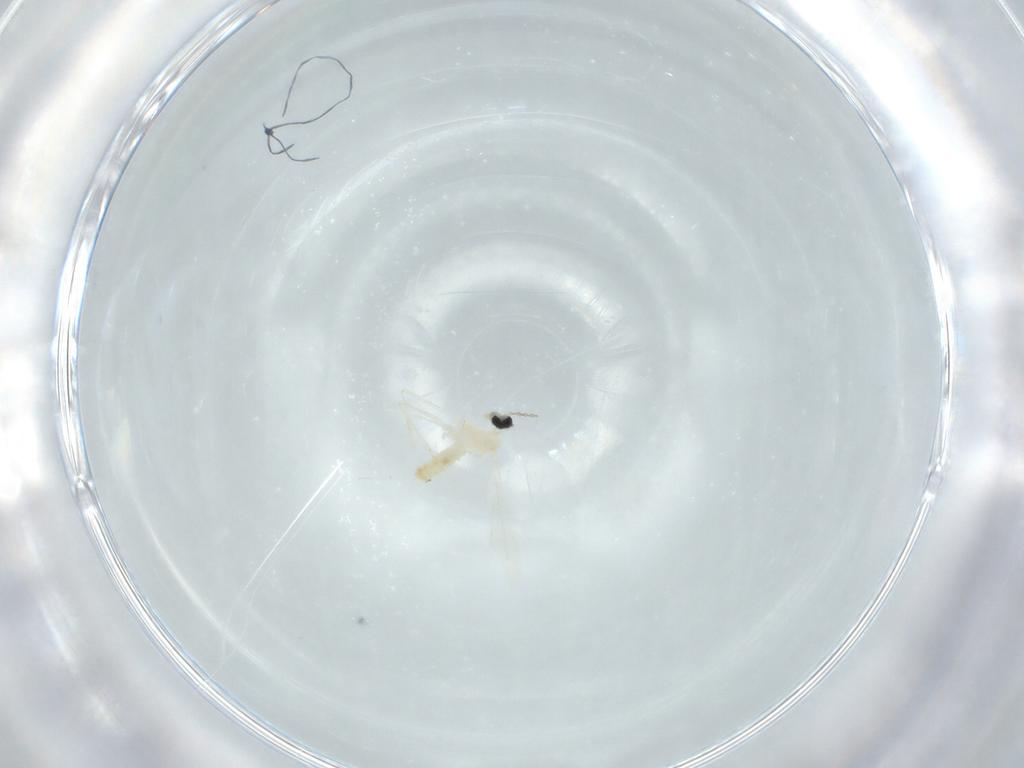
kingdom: Animalia
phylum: Arthropoda
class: Insecta
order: Diptera
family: Cecidomyiidae
